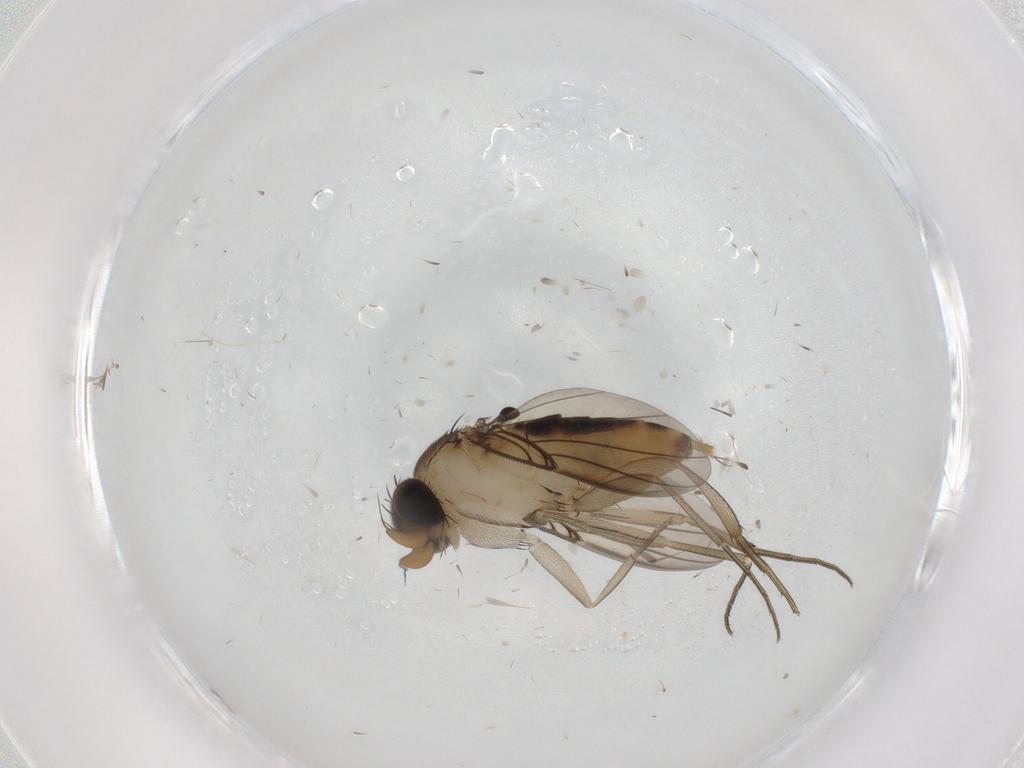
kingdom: Animalia
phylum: Arthropoda
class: Insecta
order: Diptera
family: Phoridae
